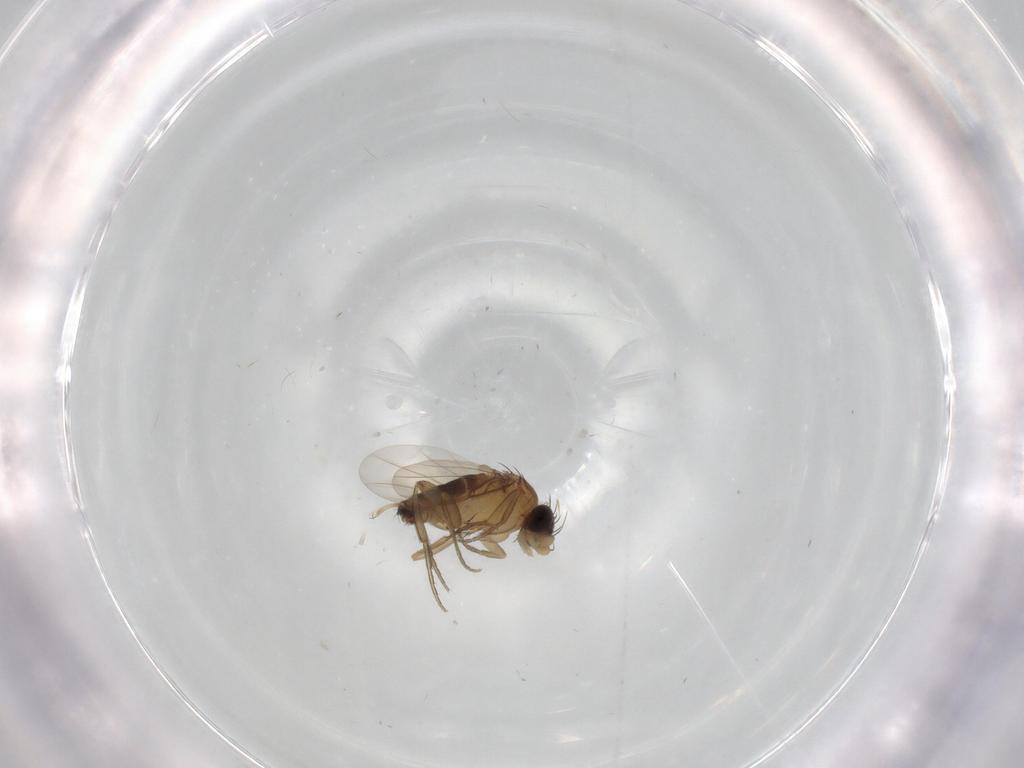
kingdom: Animalia
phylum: Arthropoda
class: Insecta
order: Diptera
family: Phoridae
